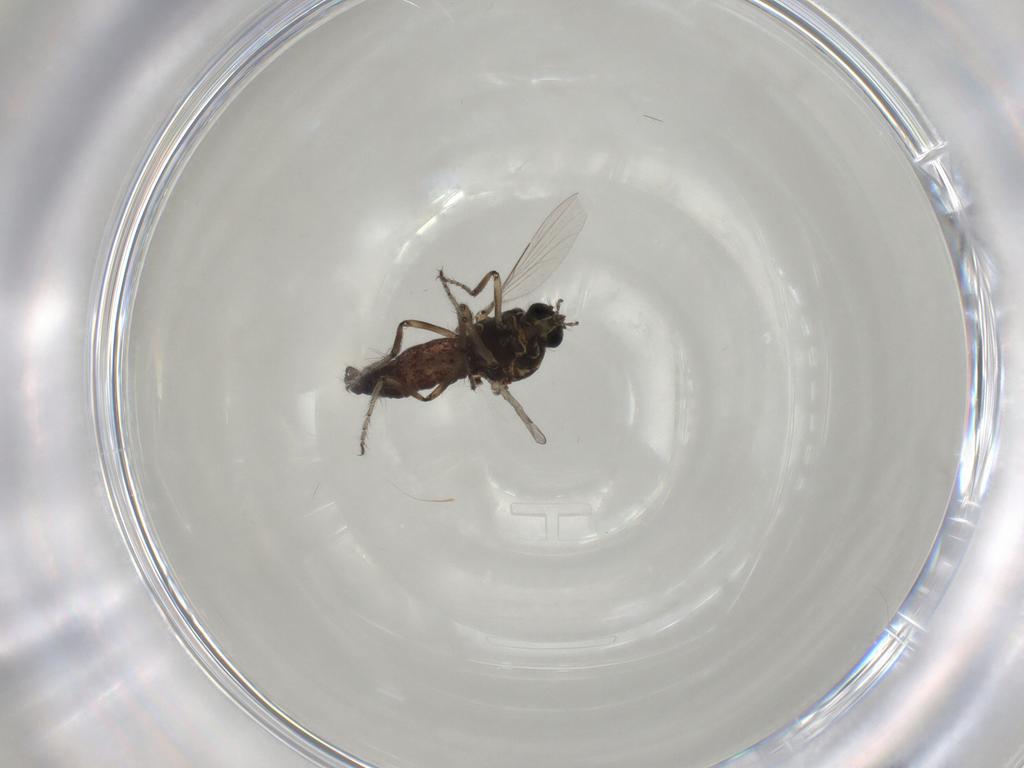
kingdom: Animalia
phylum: Arthropoda
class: Insecta
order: Diptera
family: Ceratopogonidae
